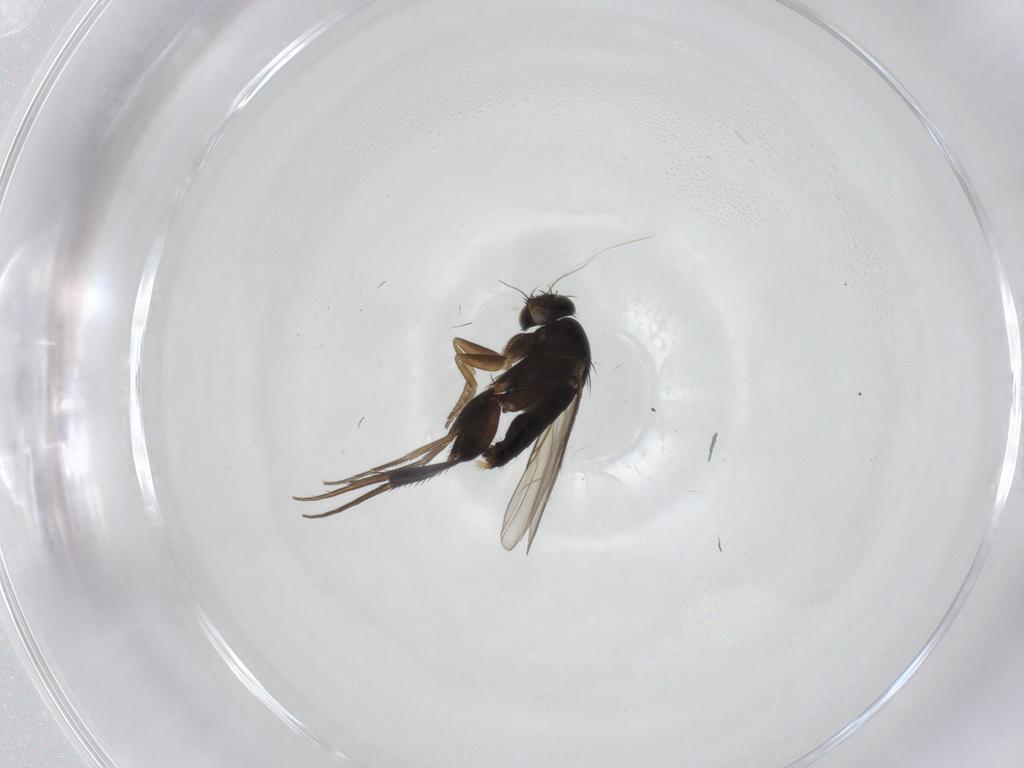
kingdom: Animalia
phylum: Arthropoda
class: Insecta
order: Diptera
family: Phoridae
